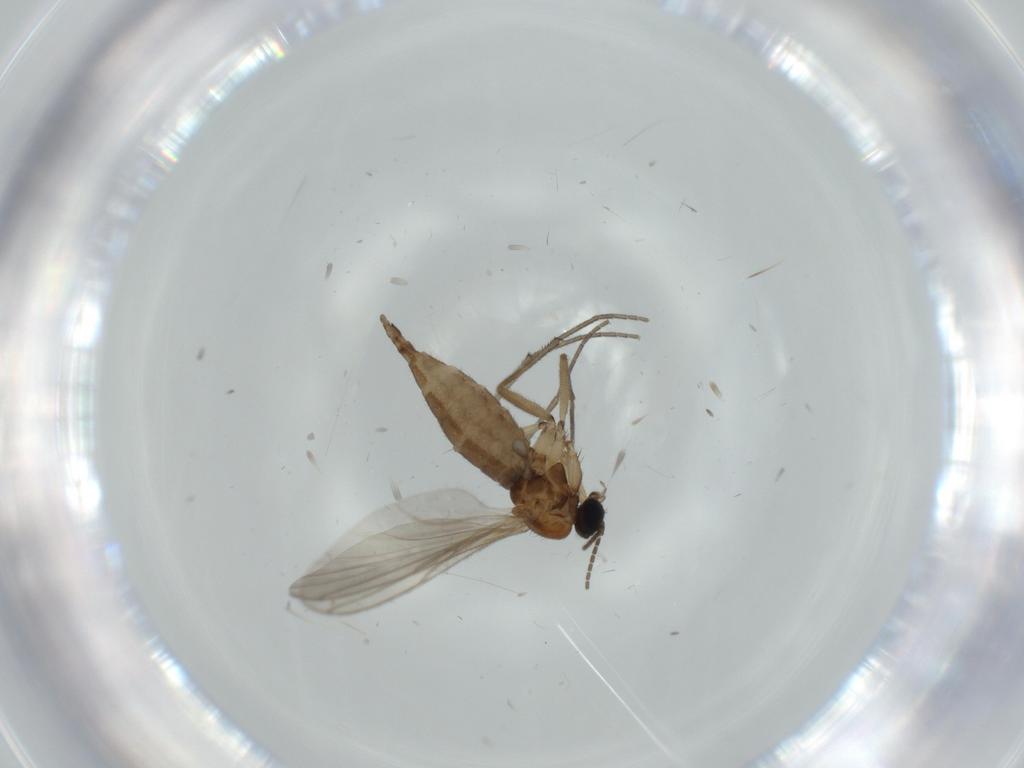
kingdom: Animalia
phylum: Arthropoda
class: Insecta
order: Diptera
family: Sciaridae
